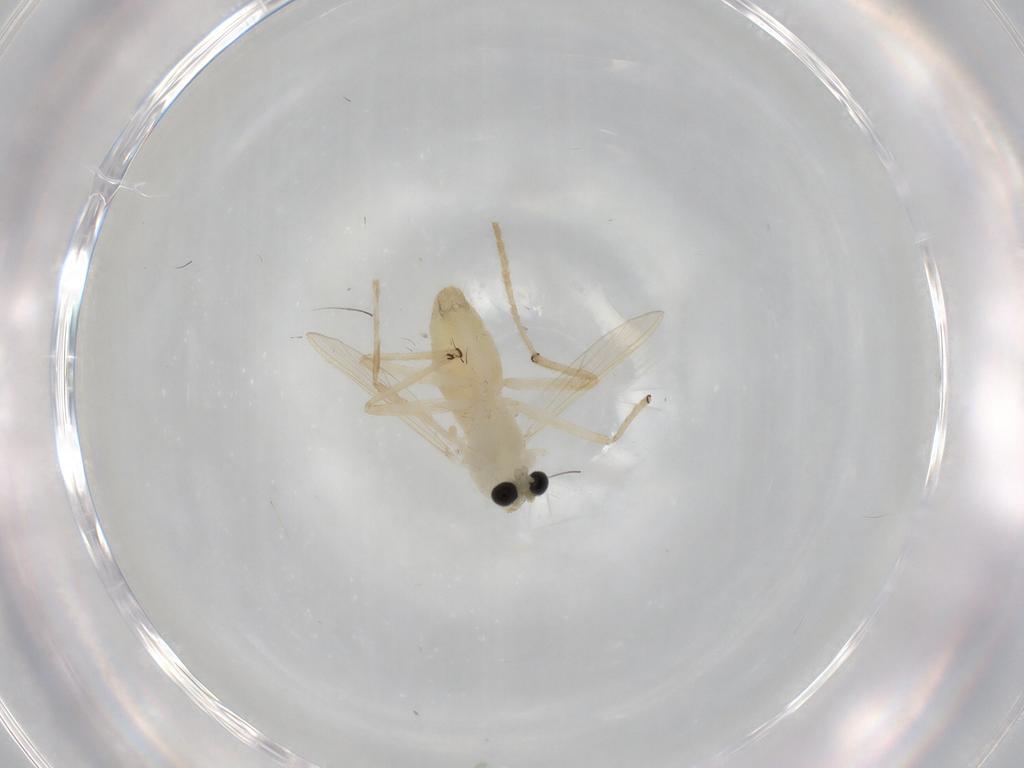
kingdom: Animalia
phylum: Arthropoda
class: Insecta
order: Diptera
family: Chironomidae
